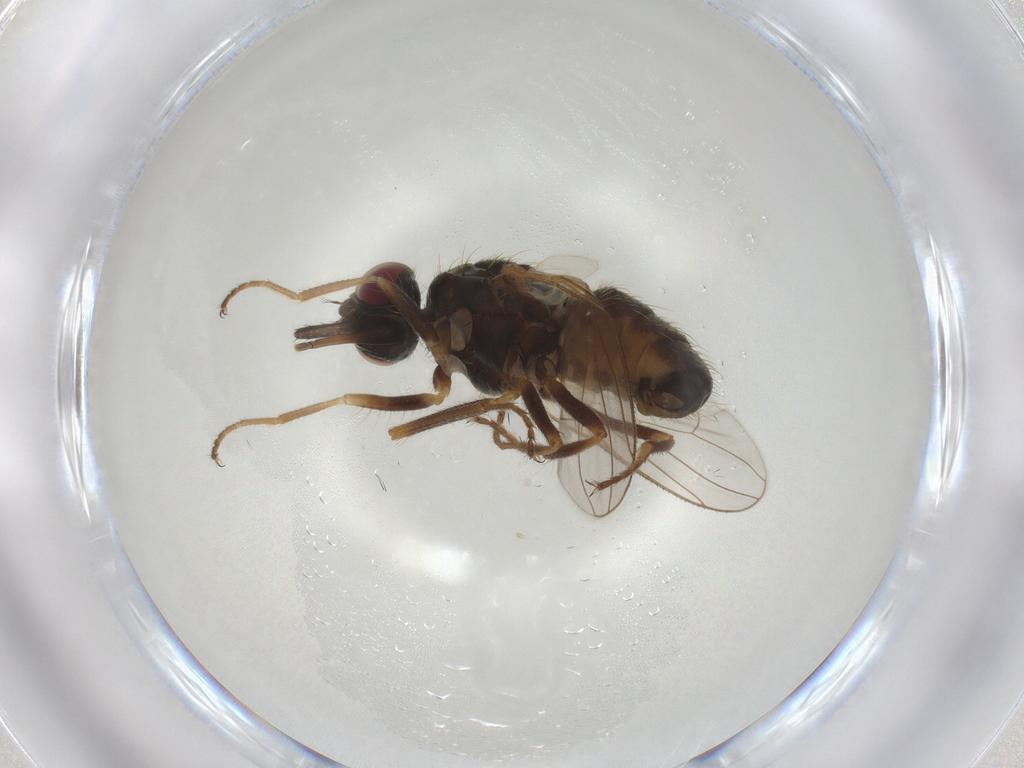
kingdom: Animalia
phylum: Arthropoda
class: Insecta
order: Diptera
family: Muscidae
